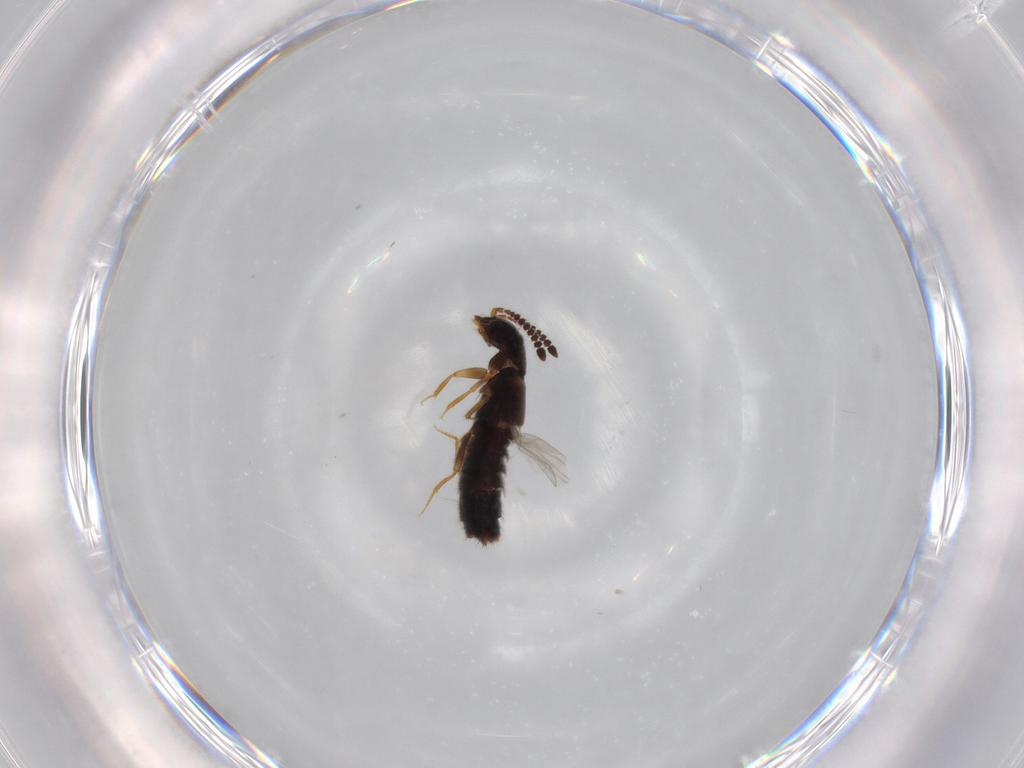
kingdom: Animalia
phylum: Arthropoda
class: Insecta
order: Coleoptera
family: Staphylinidae
